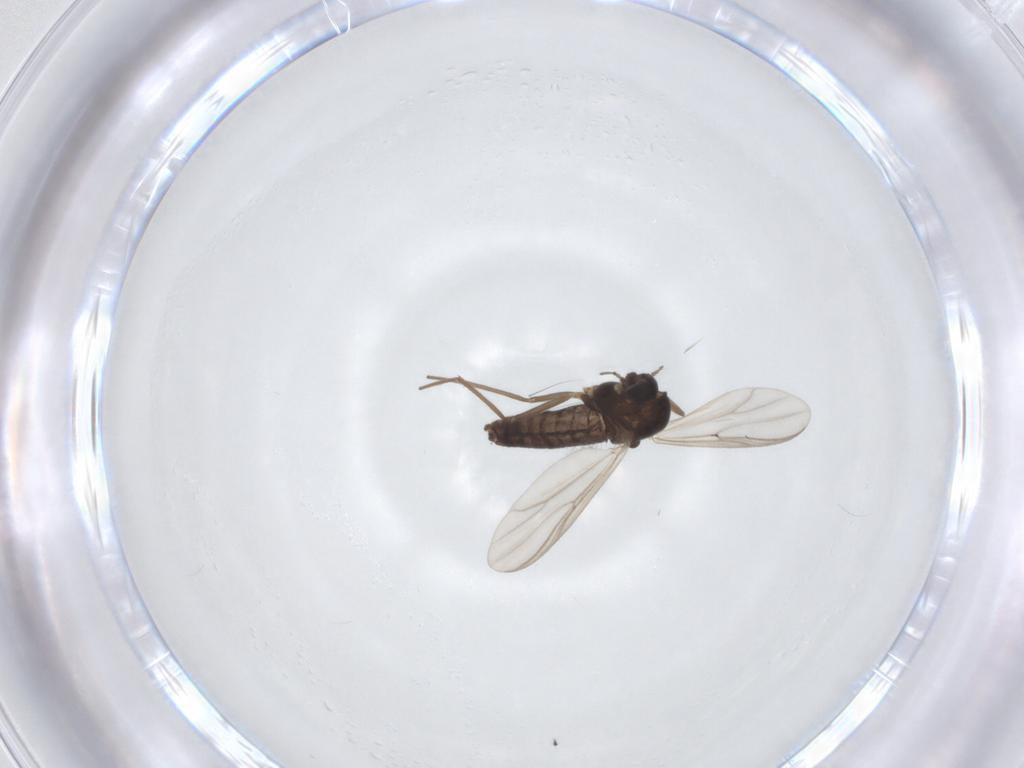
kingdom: Animalia
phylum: Arthropoda
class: Insecta
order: Diptera
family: Chironomidae
